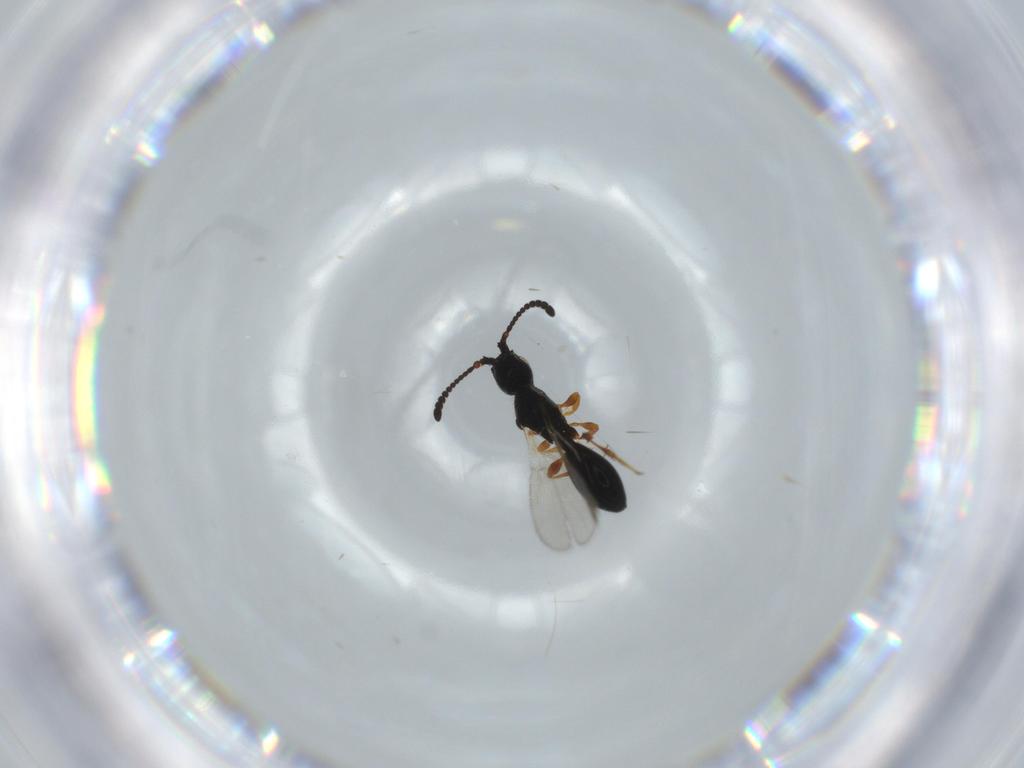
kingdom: Animalia
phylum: Arthropoda
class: Insecta
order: Hymenoptera
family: Diapriidae
